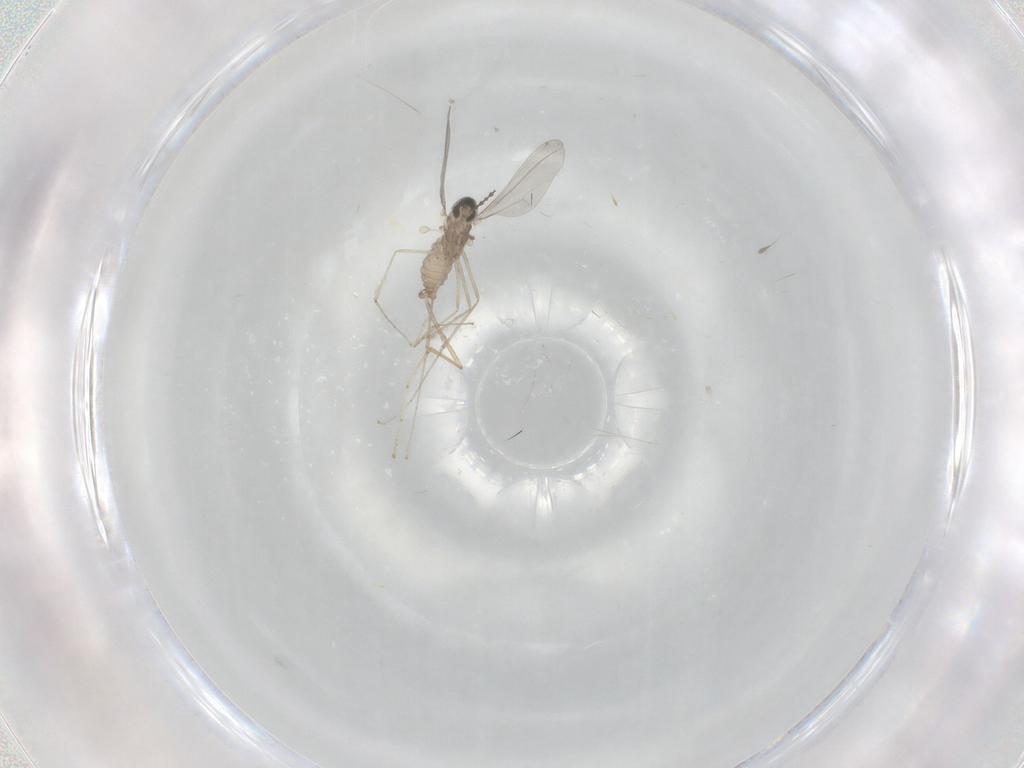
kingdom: Animalia
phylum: Arthropoda
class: Insecta
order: Diptera
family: Cecidomyiidae
